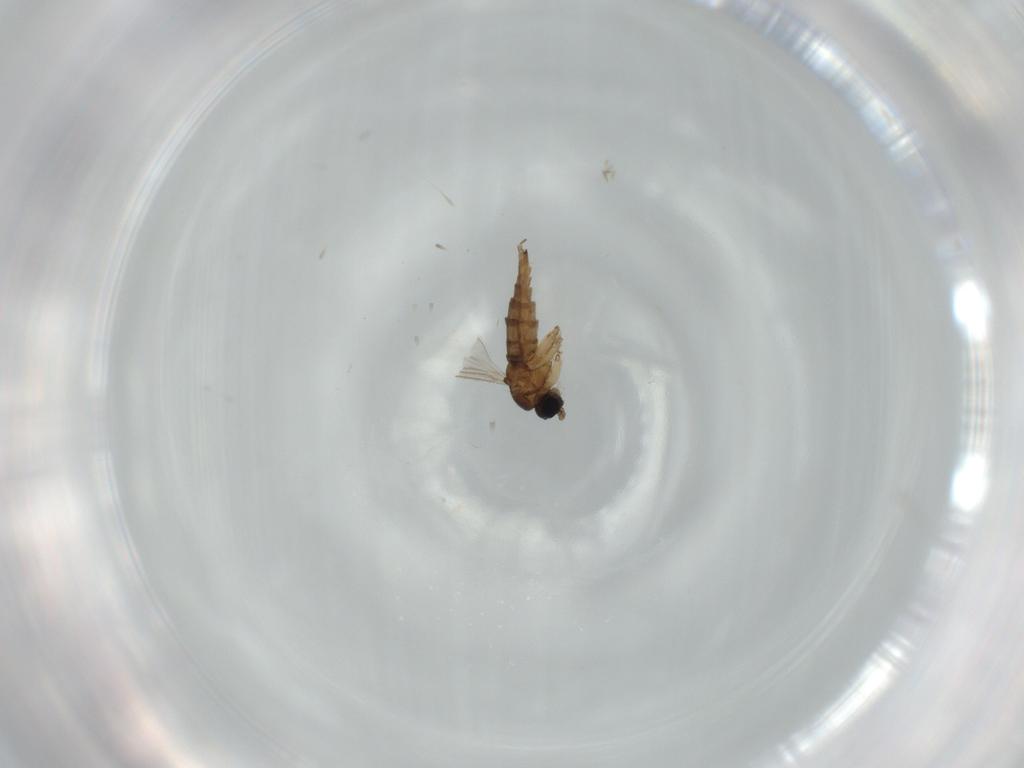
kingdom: Animalia
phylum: Arthropoda
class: Insecta
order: Diptera
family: Sciaridae
